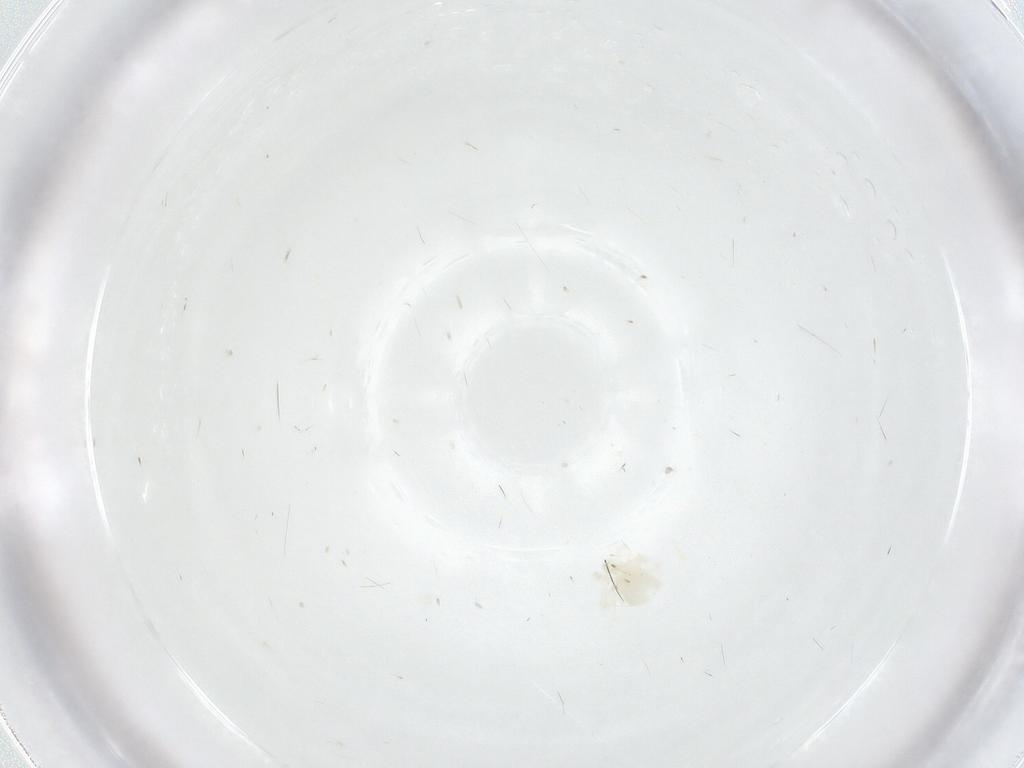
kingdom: Animalia
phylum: Arthropoda
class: Arachnida
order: Trombidiformes
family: Anystidae
